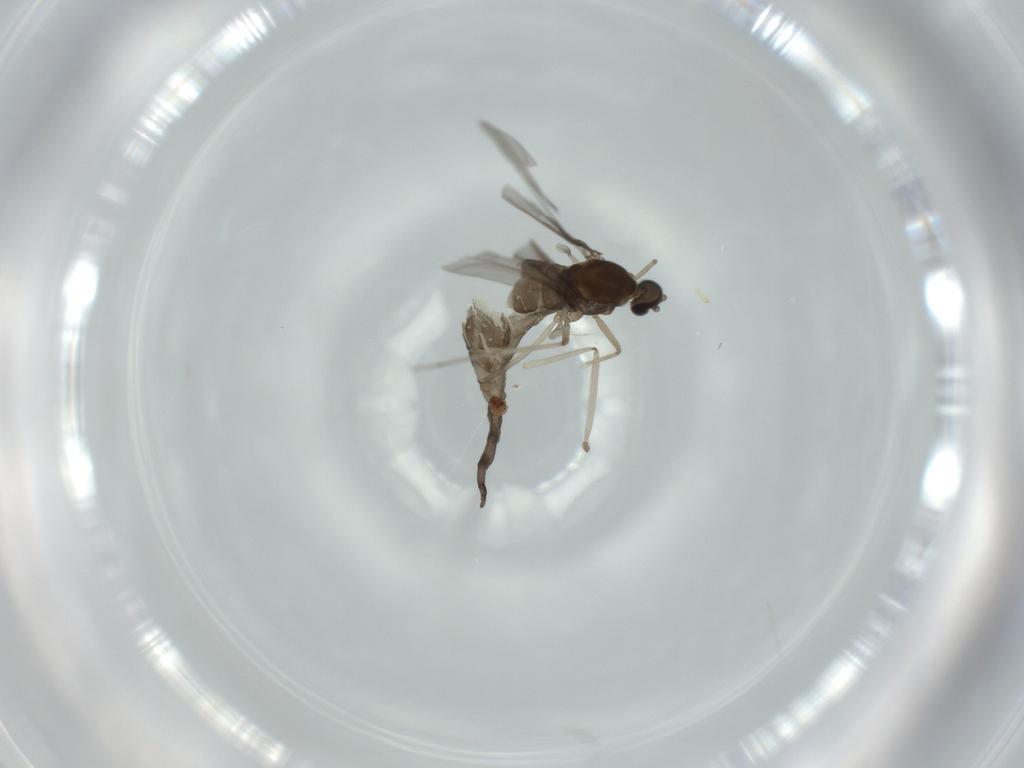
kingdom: Animalia
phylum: Arthropoda
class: Insecta
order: Diptera
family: Cecidomyiidae
